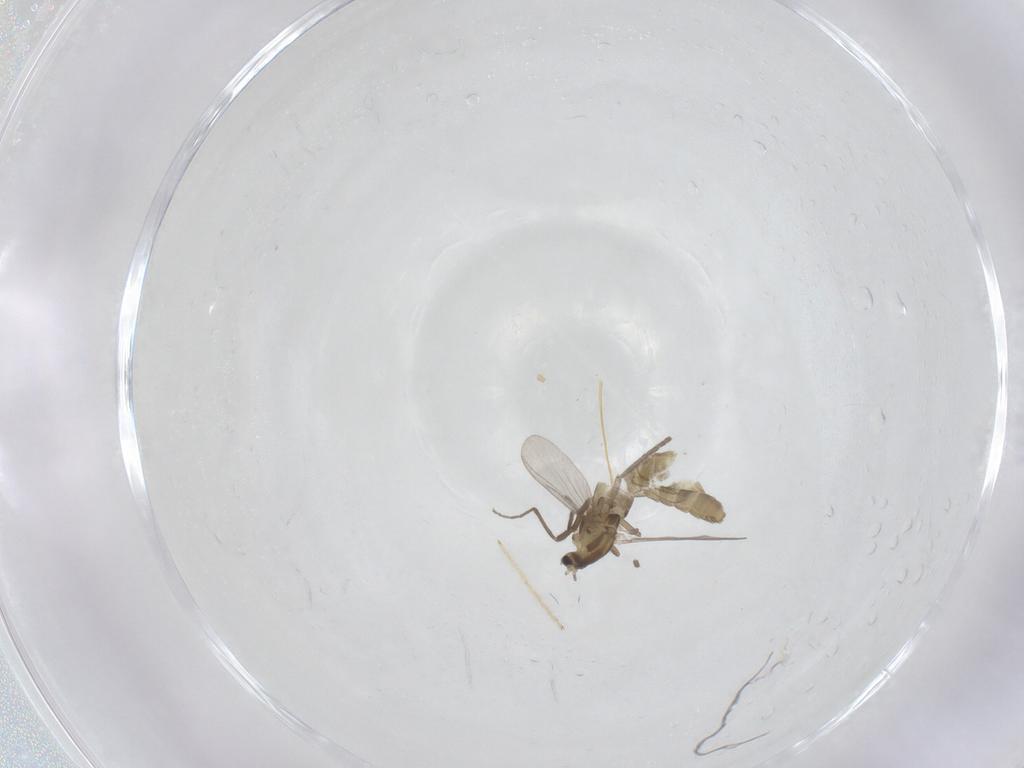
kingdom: Animalia
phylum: Arthropoda
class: Insecta
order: Diptera
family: Chironomidae
